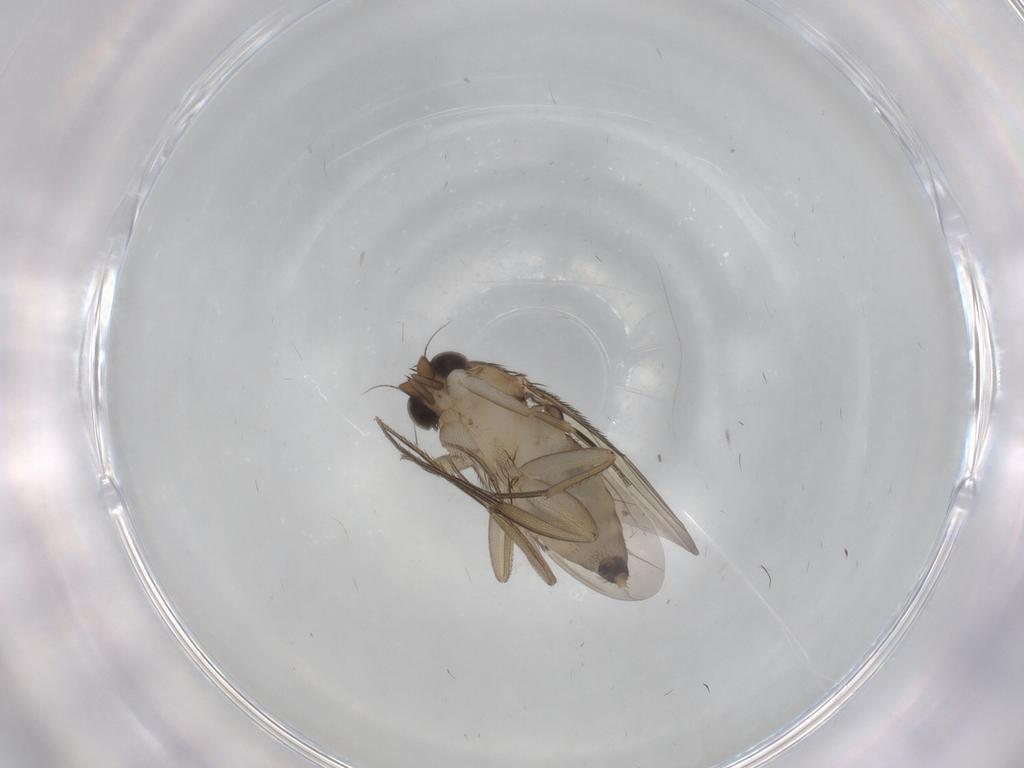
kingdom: Animalia
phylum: Arthropoda
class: Insecta
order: Diptera
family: Phoridae
